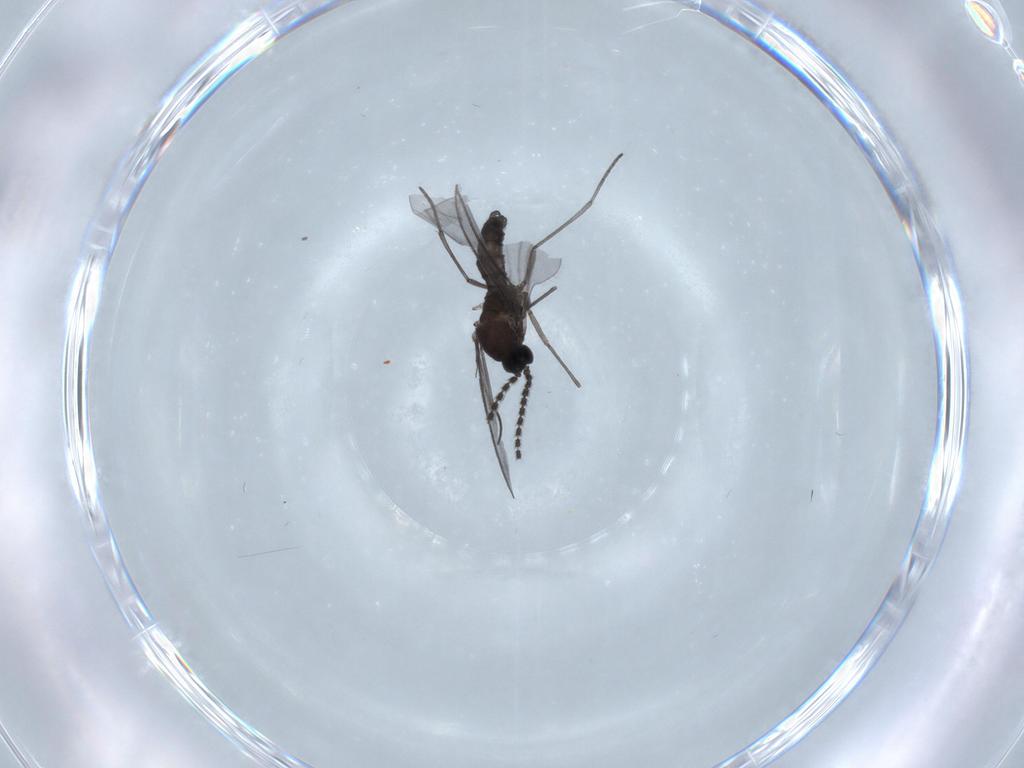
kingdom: Animalia
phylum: Arthropoda
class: Insecta
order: Diptera
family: Sciaridae
